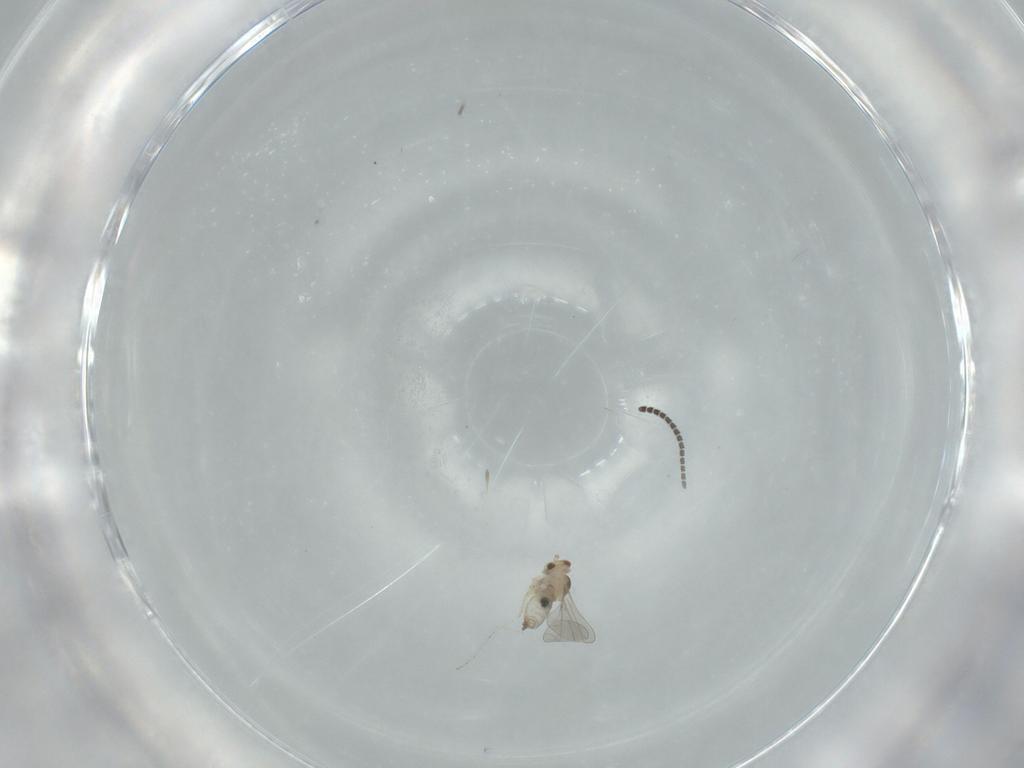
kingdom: Animalia
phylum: Arthropoda
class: Insecta
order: Diptera
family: Cecidomyiidae
